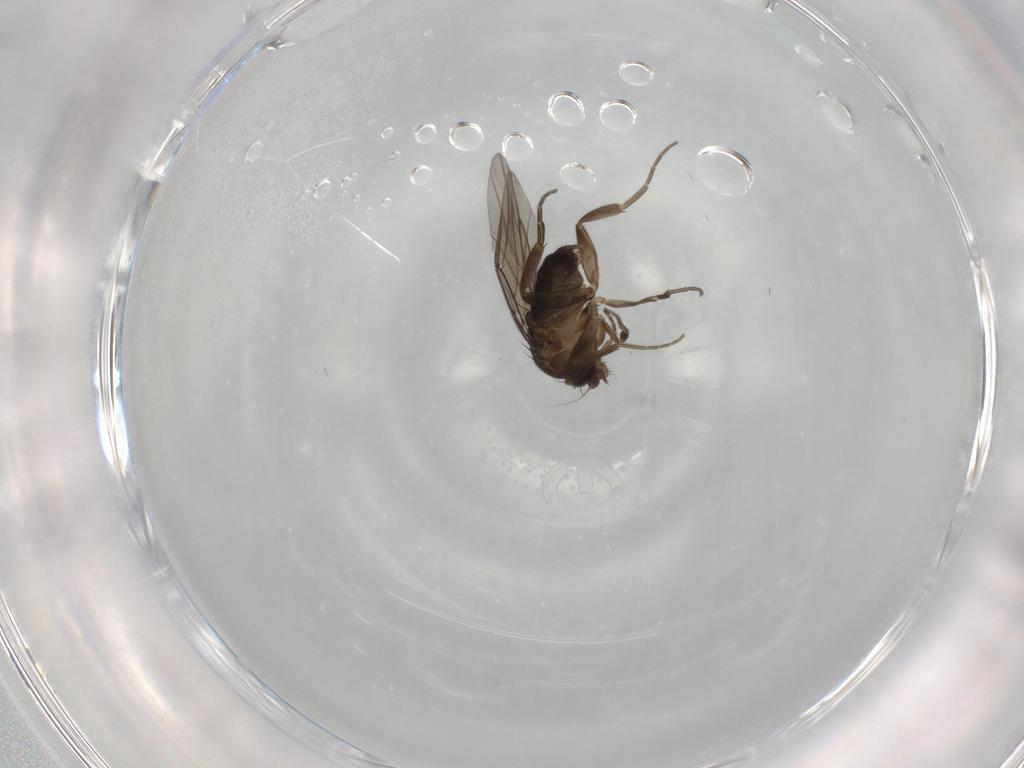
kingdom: Animalia
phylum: Arthropoda
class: Insecta
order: Diptera
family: Phoridae
